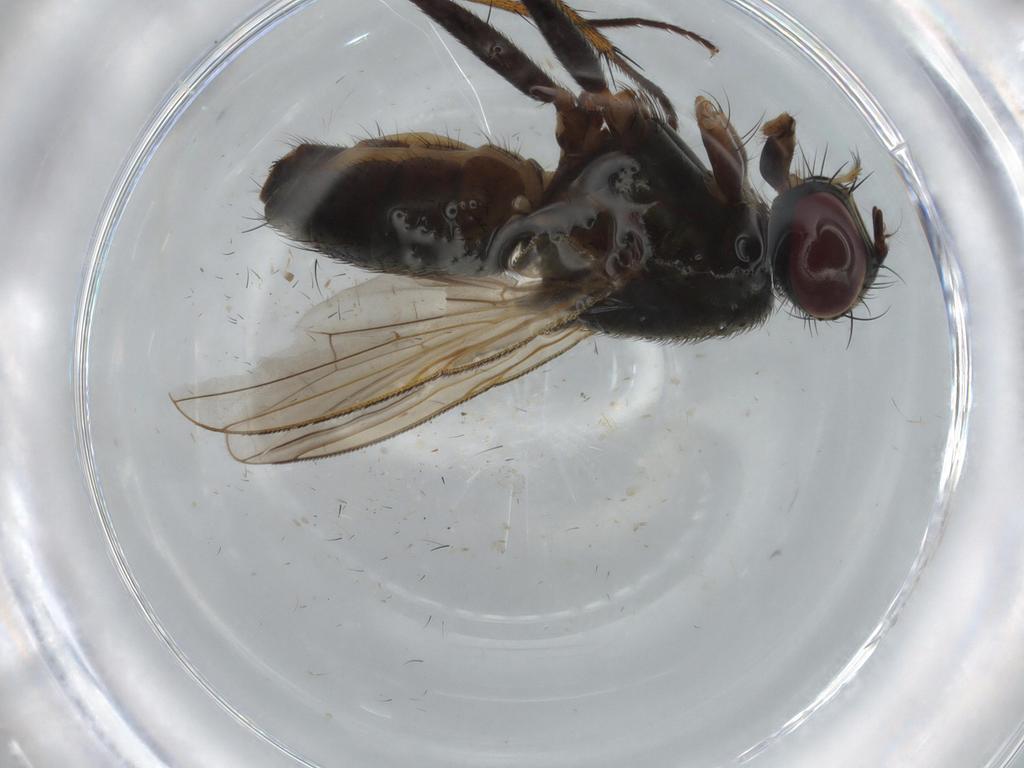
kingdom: Animalia
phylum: Arthropoda
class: Insecta
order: Diptera
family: Muscidae
